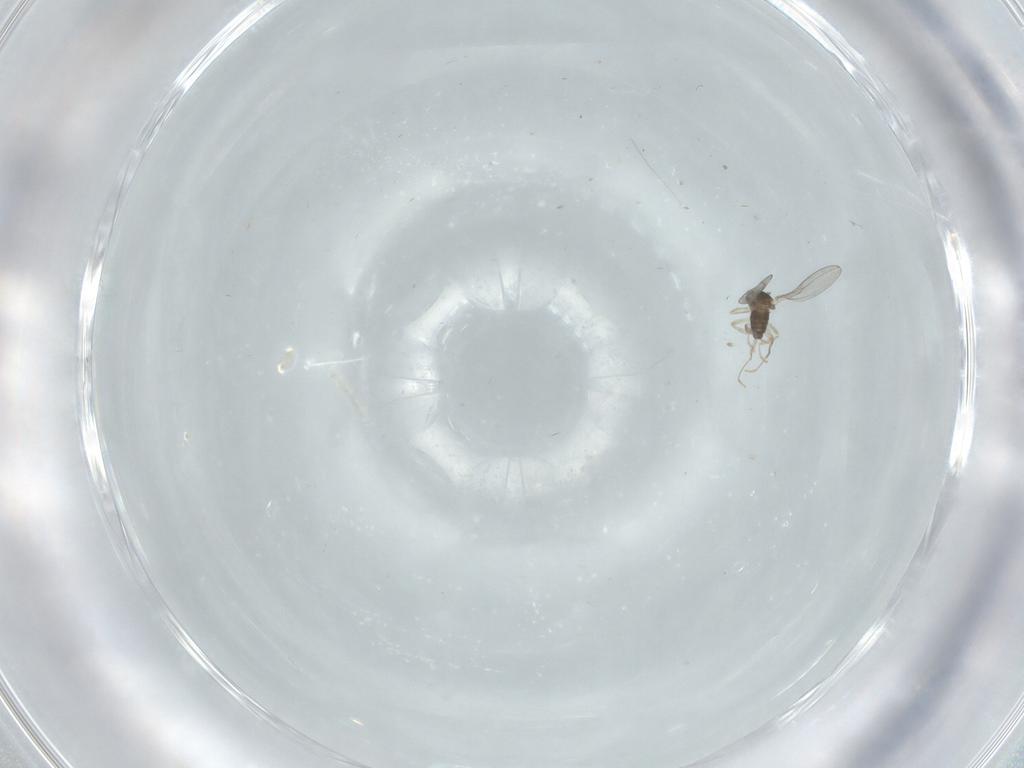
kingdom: Animalia
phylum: Arthropoda
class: Insecta
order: Diptera
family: Cecidomyiidae
